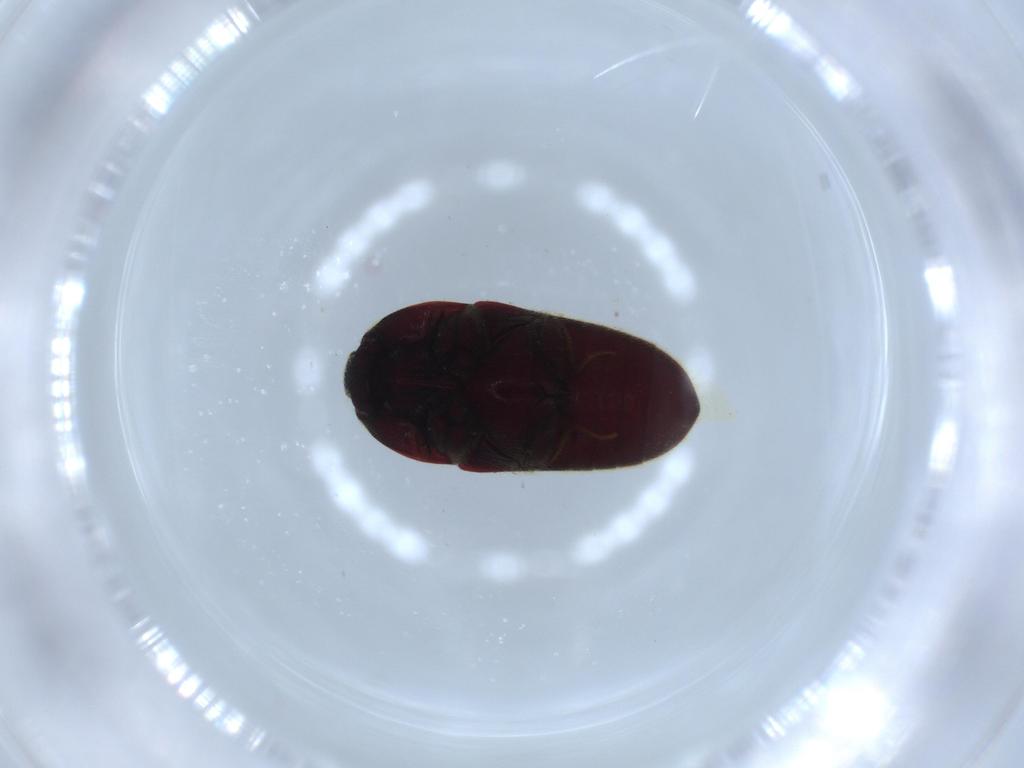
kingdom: Animalia
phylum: Arthropoda
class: Insecta
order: Coleoptera
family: Throscidae
